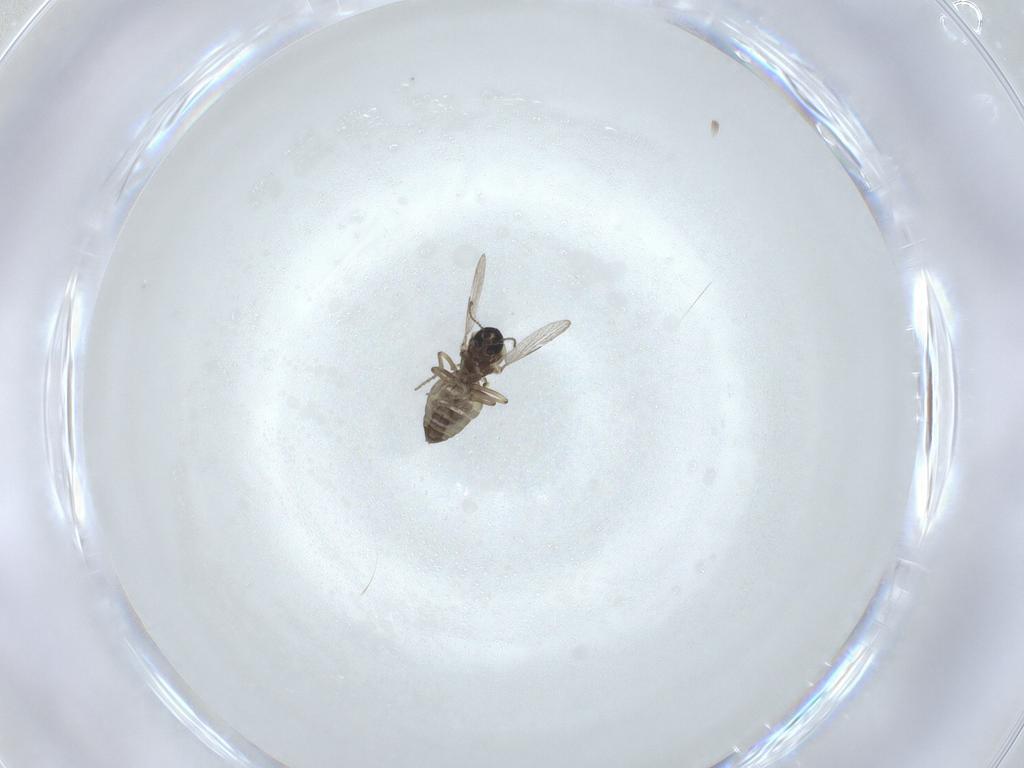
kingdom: Animalia
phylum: Arthropoda
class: Insecta
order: Diptera
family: Ceratopogonidae
